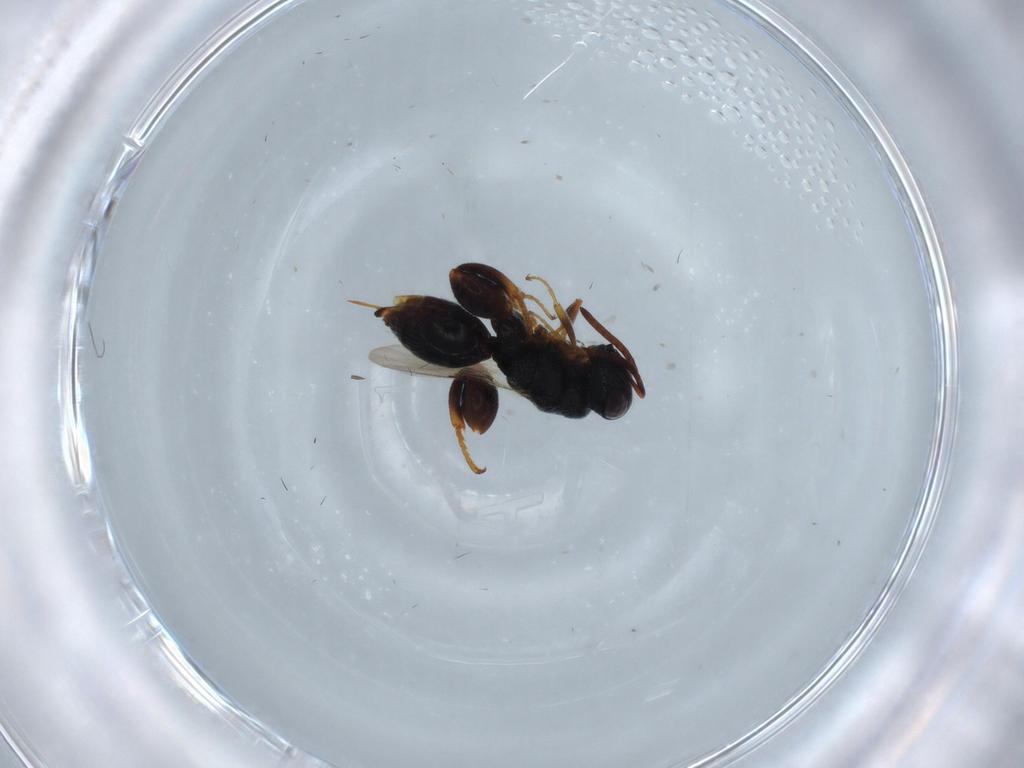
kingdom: Animalia
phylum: Arthropoda
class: Insecta
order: Hymenoptera
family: Chalcididae
